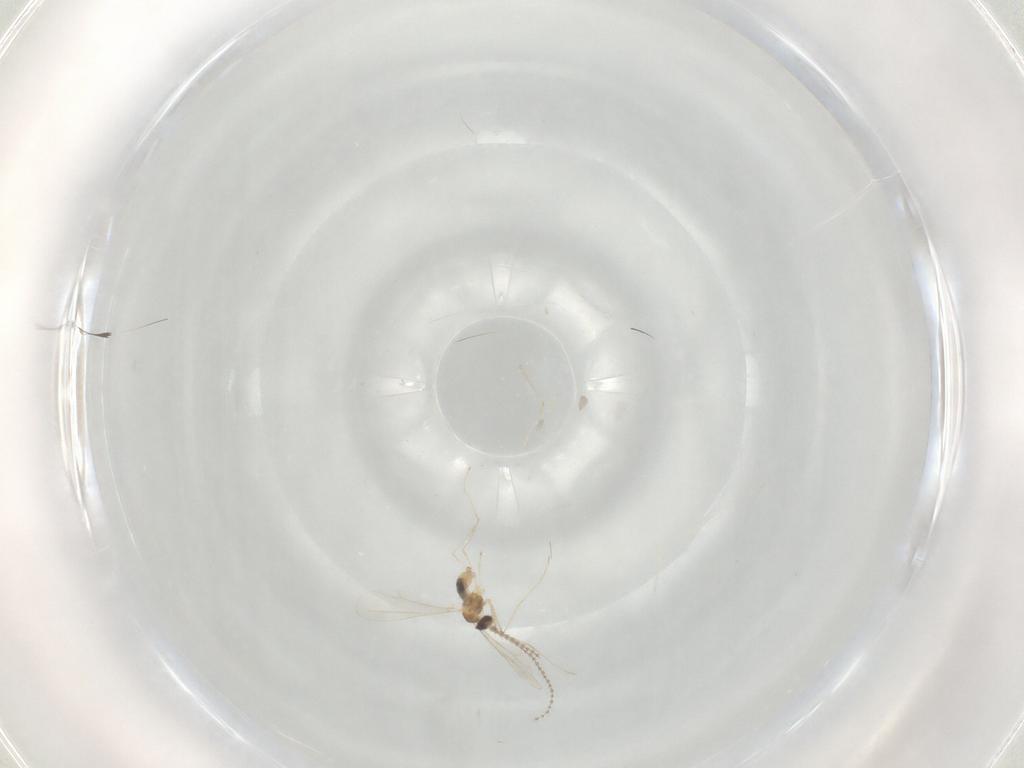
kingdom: Animalia
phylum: Arthropoda
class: Insecta
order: Diptera
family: Cecidomyiidae
